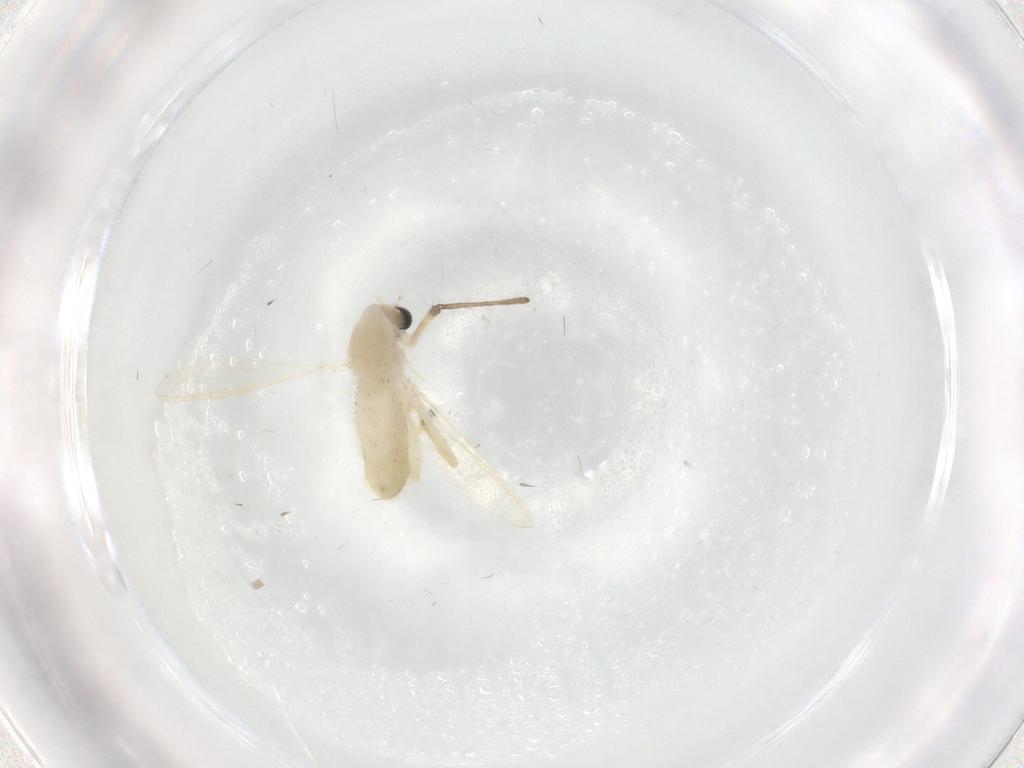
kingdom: Animalia
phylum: Arthropoda
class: Insecta
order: Diptera
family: Chironomidae
